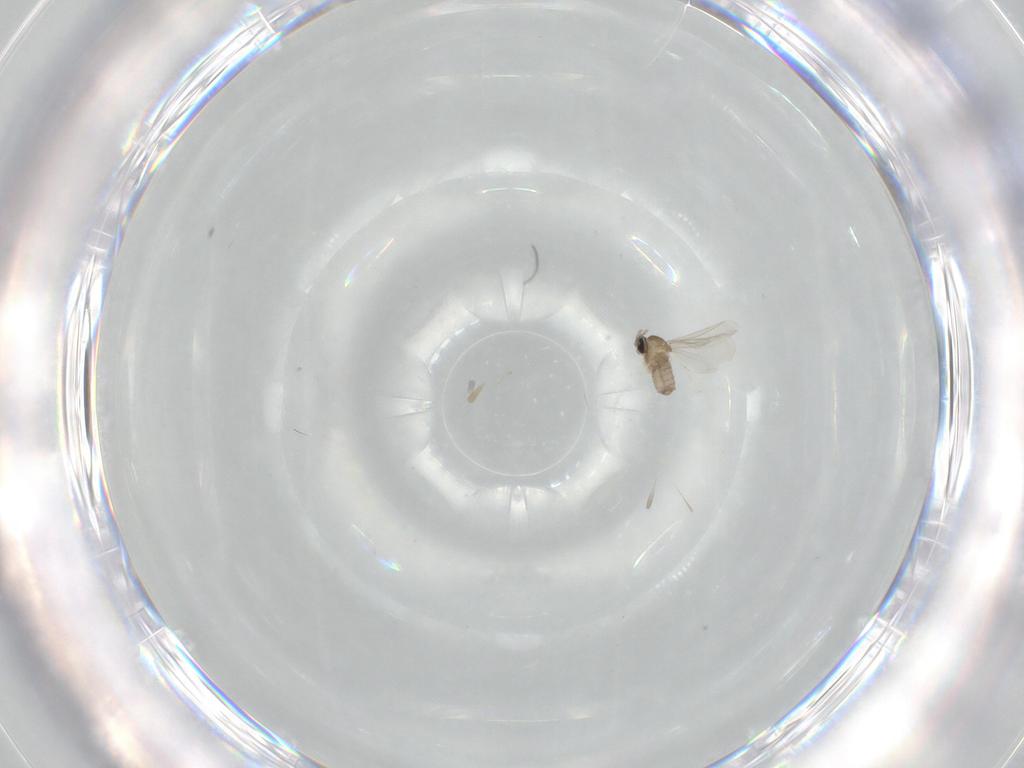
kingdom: Animalia
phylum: Arthropoda
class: Insecta
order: Diptera
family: Cecidomyiidae
